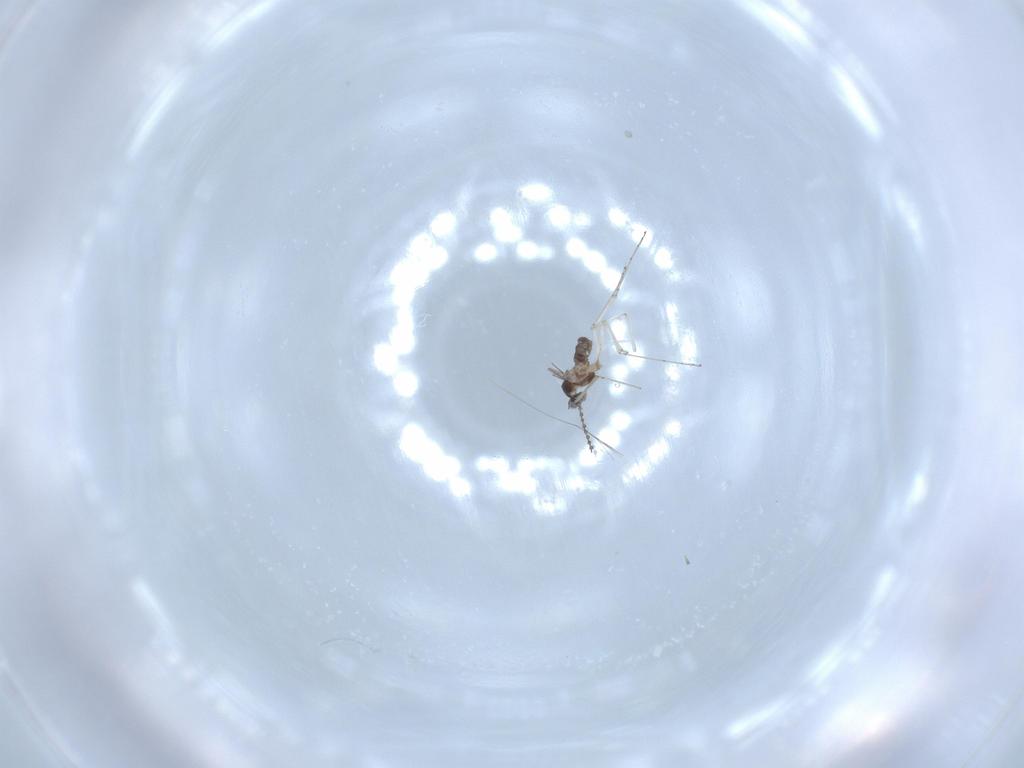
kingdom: Animalia
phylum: Arthropoda
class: Insecta
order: Diptera
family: Cecidomyiidae
